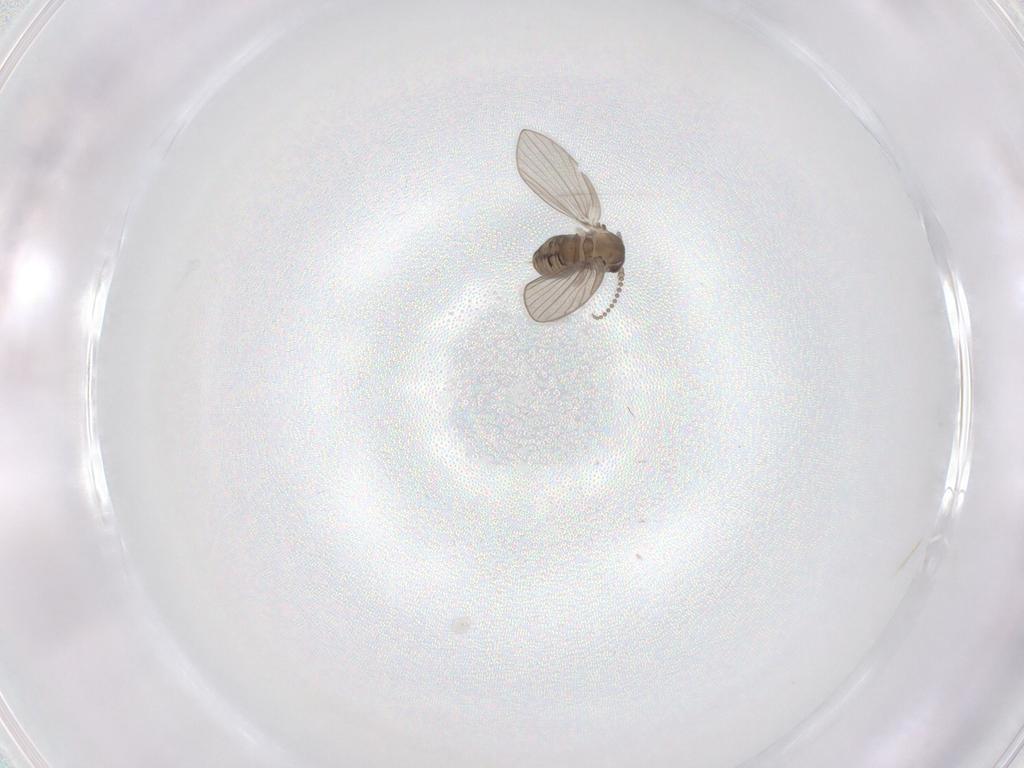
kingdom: Animalia
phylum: Arthropoda
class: Insecta
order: Diptera
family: Psychodidae
